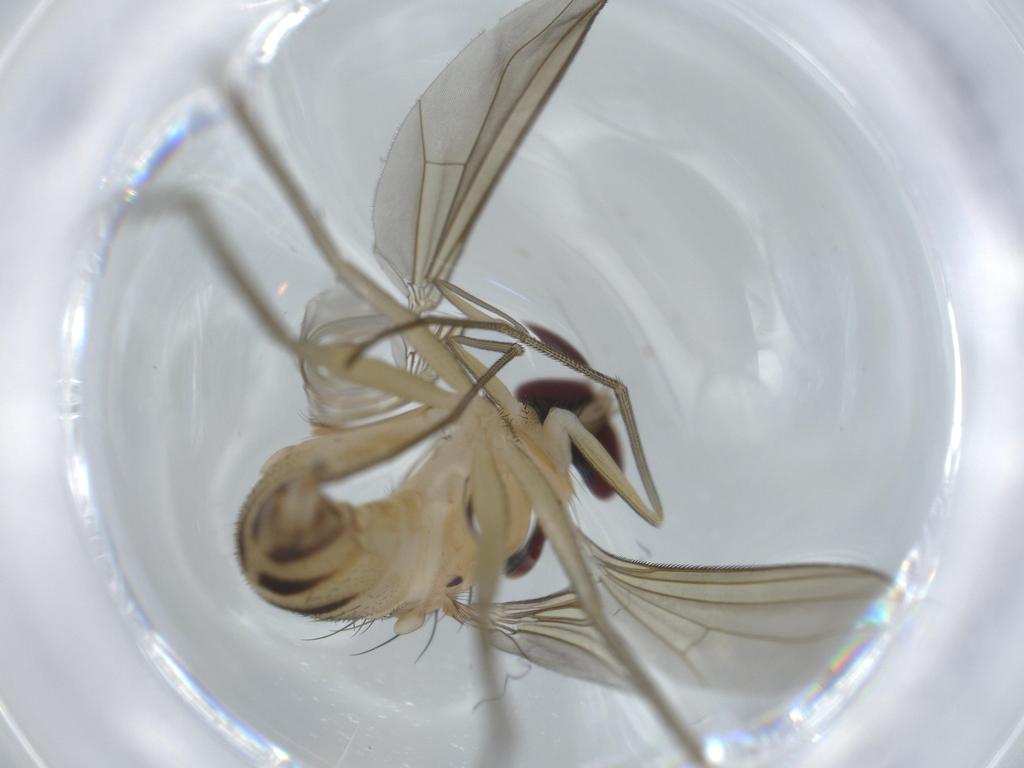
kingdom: Animalia
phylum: Arthropoda
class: Insecta
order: Diptera
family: Dolichopodidae
